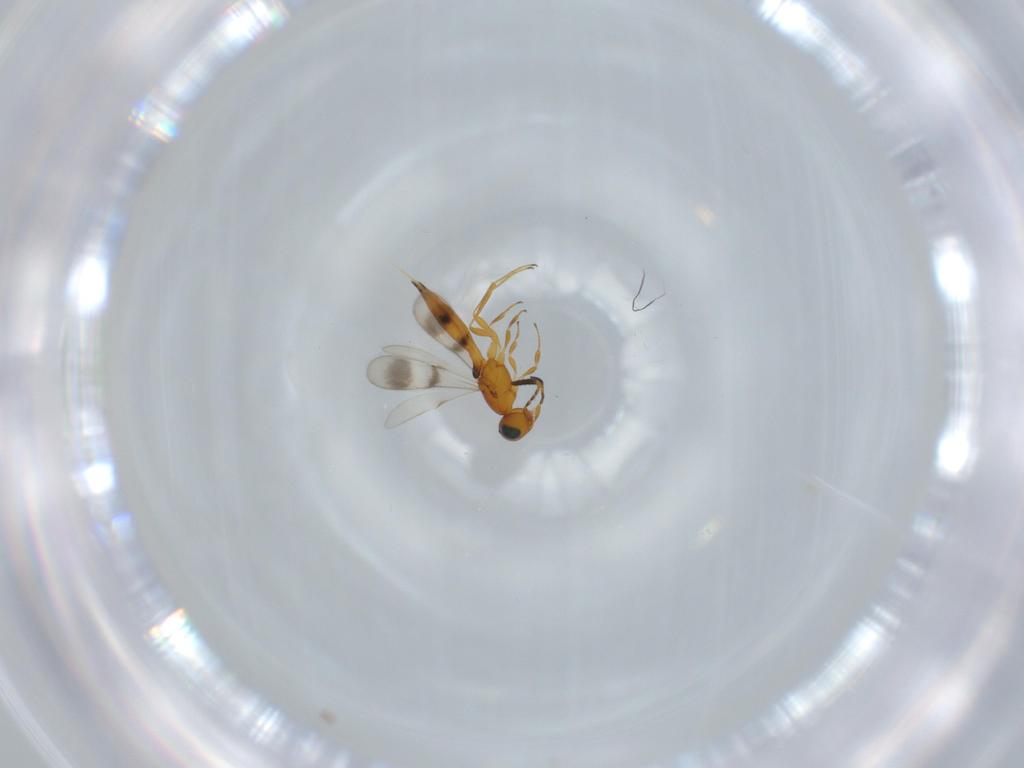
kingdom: Animalia
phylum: Arthropoda
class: Insecta
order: Hymenoptera
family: Scelionidae
